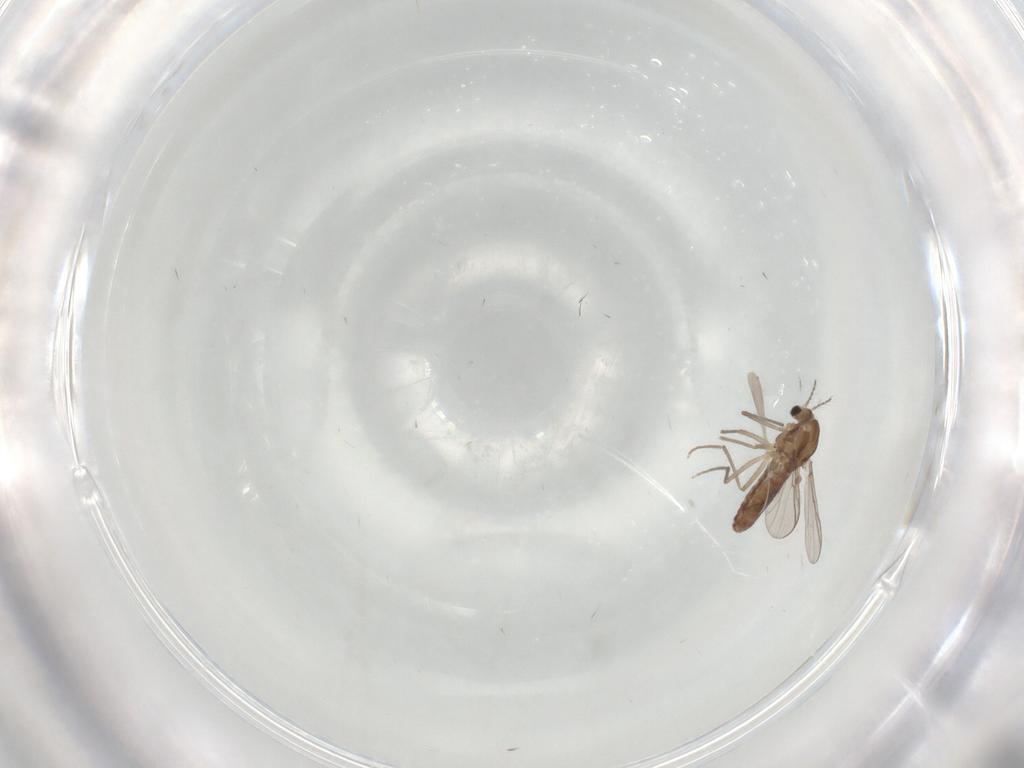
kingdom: Animalia
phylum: Arthropoda
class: Insecta
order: Diptera
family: Chironomidae
